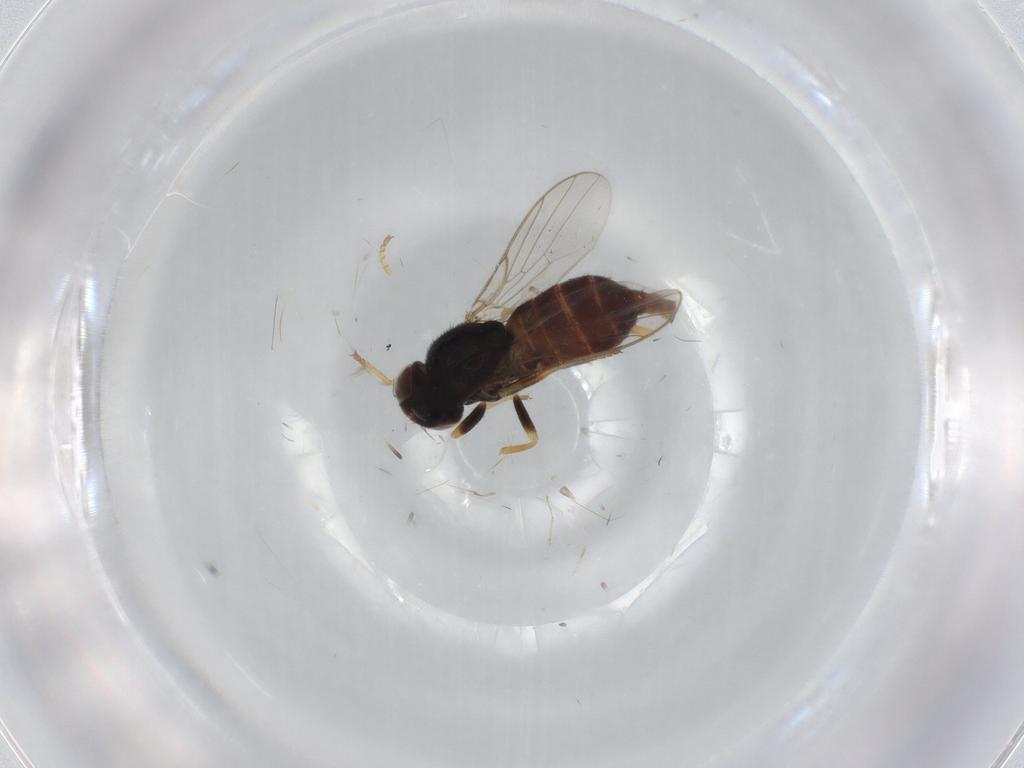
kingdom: Animalia
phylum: Arthropoda
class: Insecta
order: Diptera
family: Chloropidae
